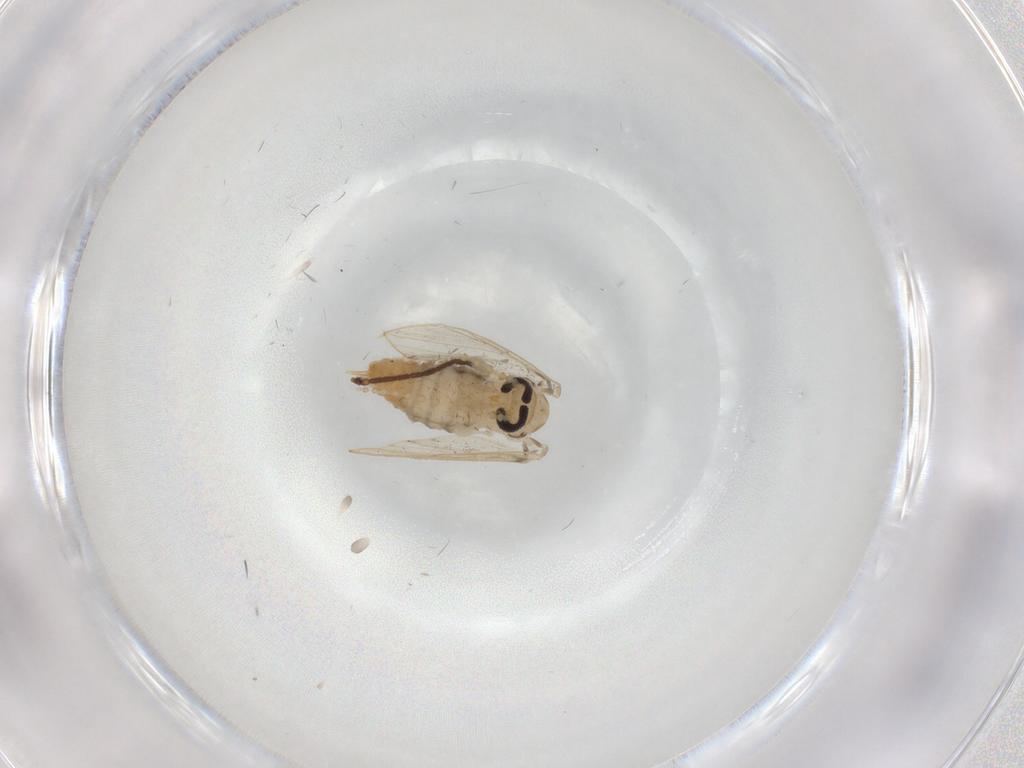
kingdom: Animalia
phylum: Arthropoda
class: Insecta
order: Diptera
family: Psychodidae
